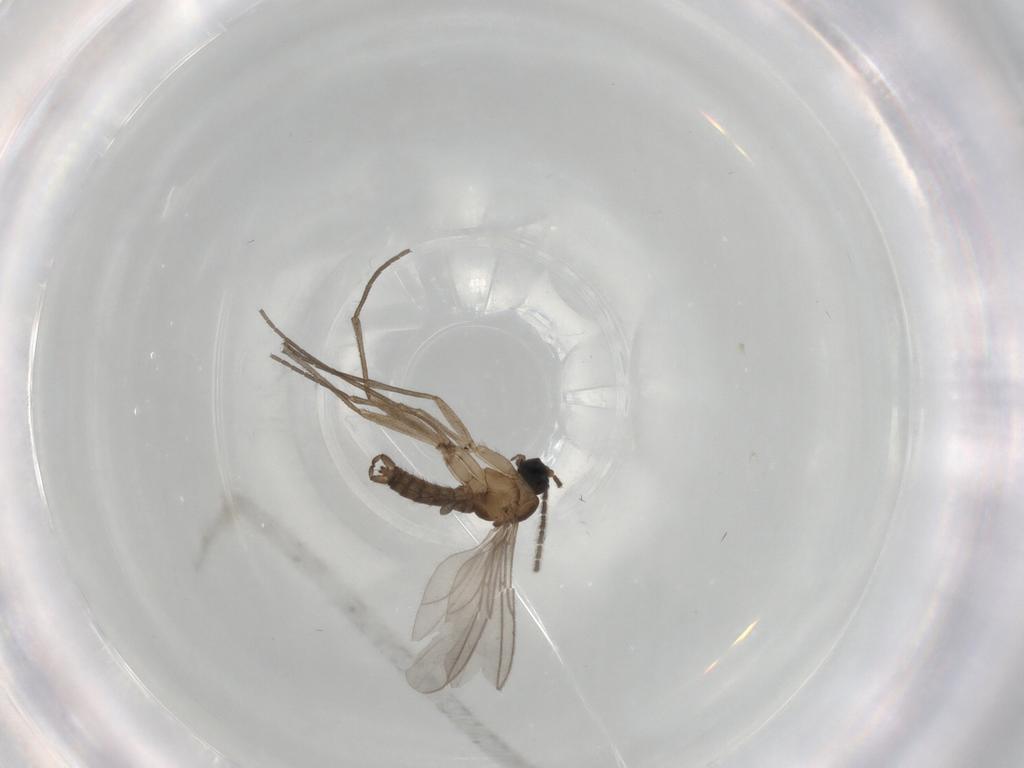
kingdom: Animalia
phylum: Arthropoda
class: Insecta
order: Diptera
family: Sciaridae
